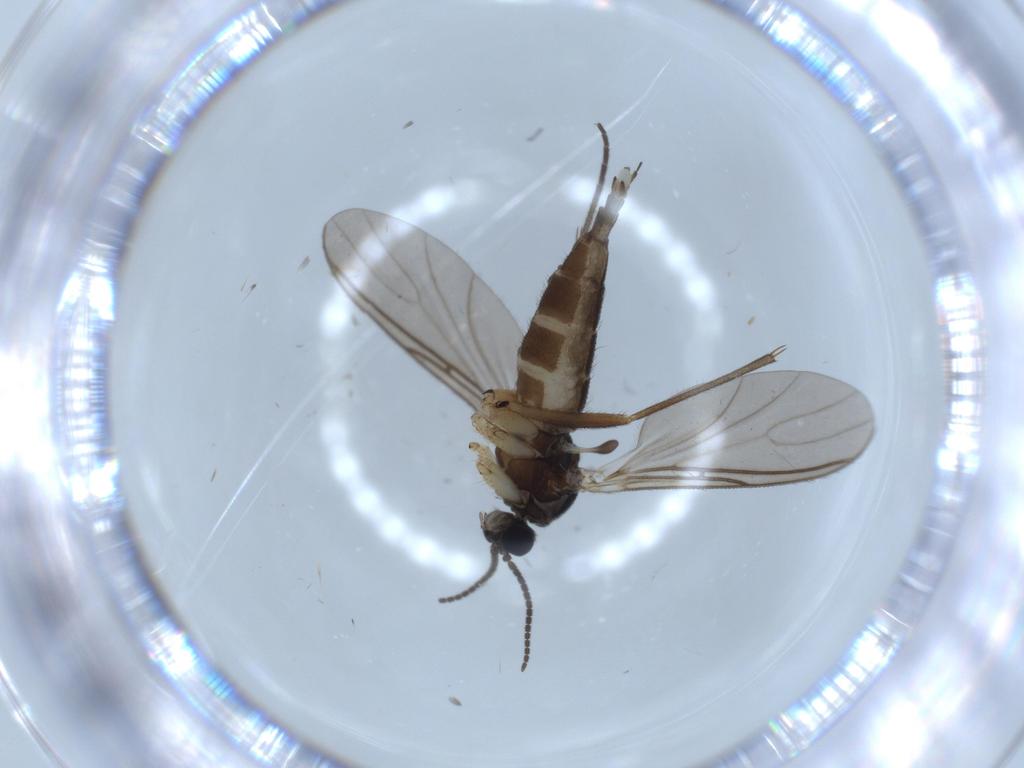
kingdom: Animalia
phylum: Arthropoda
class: Insecta
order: Diptera
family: Sciaridae
